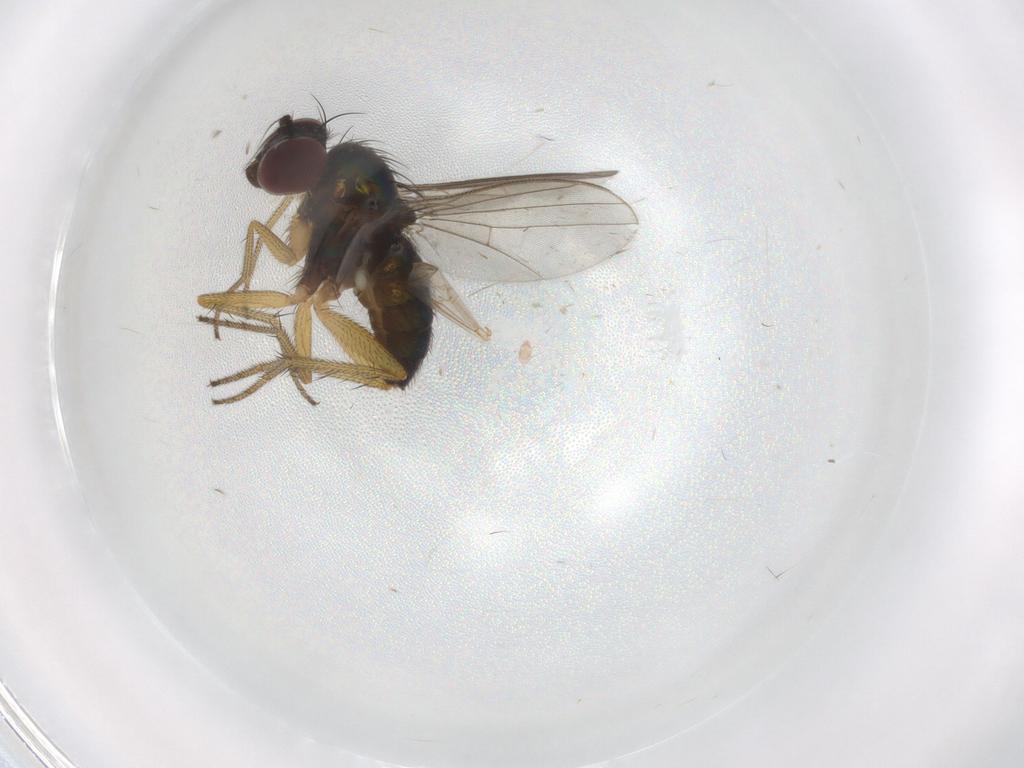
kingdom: Animalia
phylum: Arthropoda
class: Insecta
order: Diptera
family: Dolichopodidae
